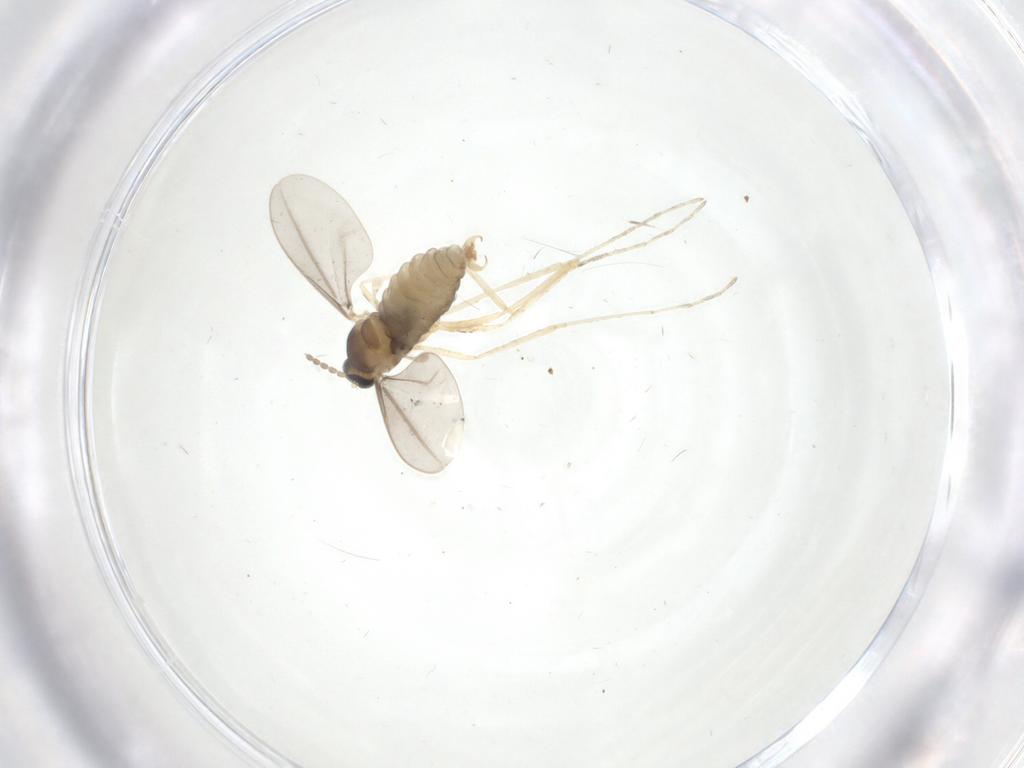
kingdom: Animalia
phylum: Arthropoda
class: Insecta
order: Diptera
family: Cecidomyiidae
